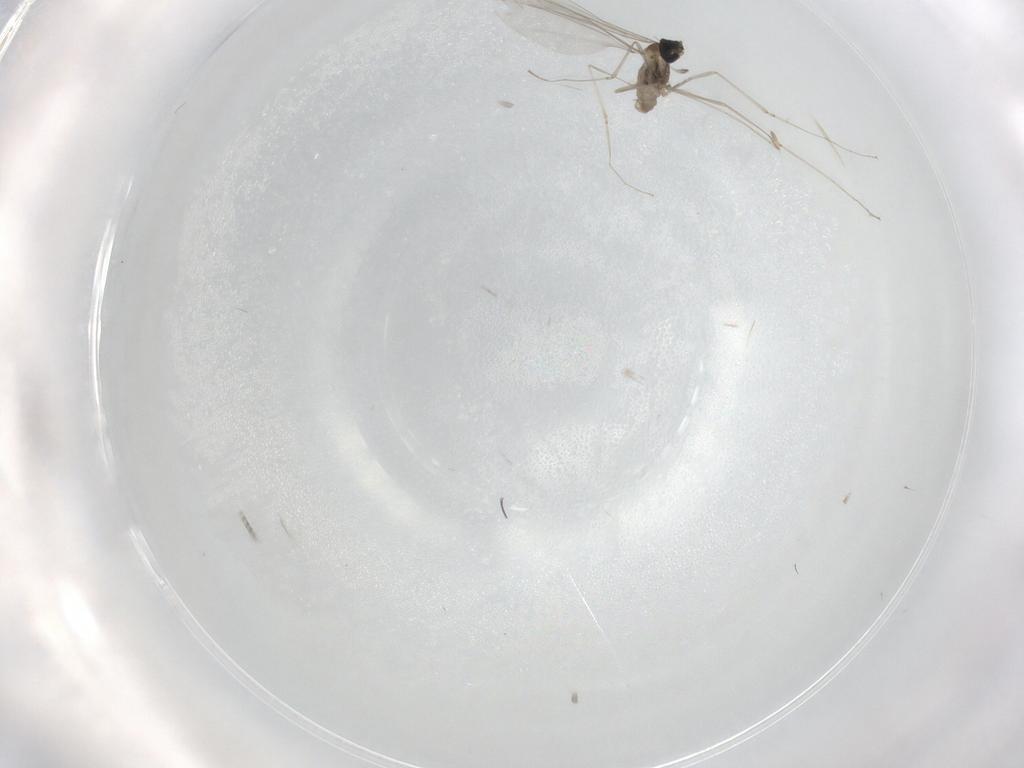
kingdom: Animalia
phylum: Arthropoda
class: Insecta
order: Diptera
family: Cecidomyiidae
